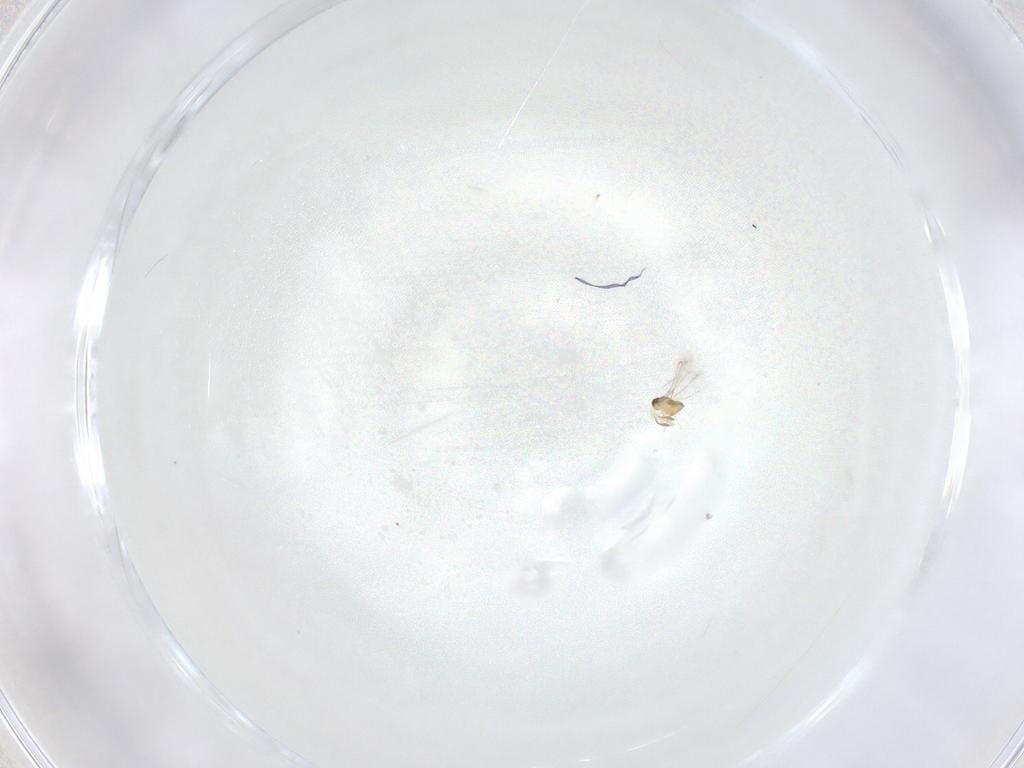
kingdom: Animalia
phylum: Arthropoda
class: Insecta
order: Hymenoptera
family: Mymaridae
